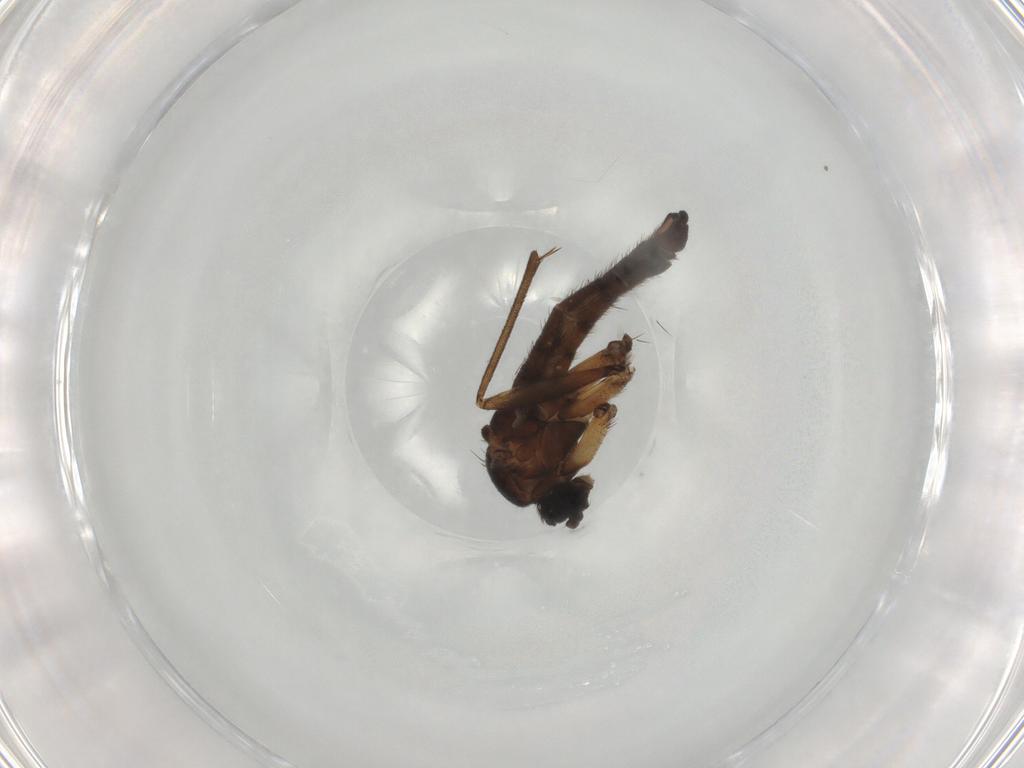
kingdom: Animalia
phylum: Arthropoda
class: Insecta
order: Diptera
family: Sciaridae
